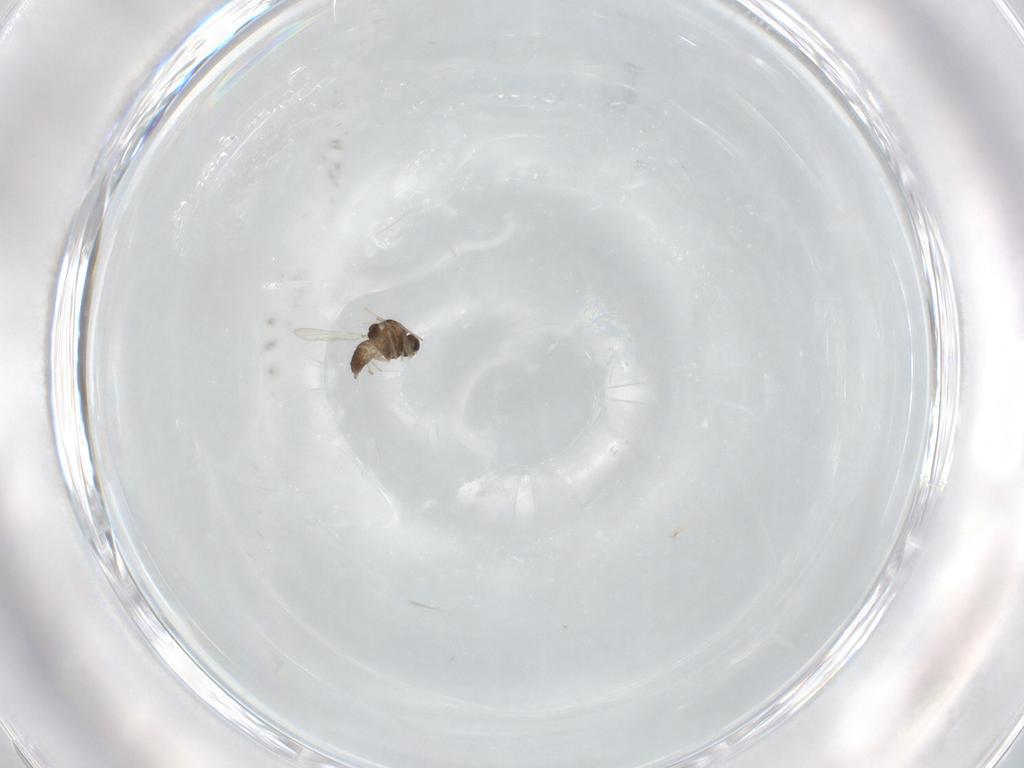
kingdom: Animalia
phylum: Arthropoda
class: Insecta
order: Diptera
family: Chironomidae
